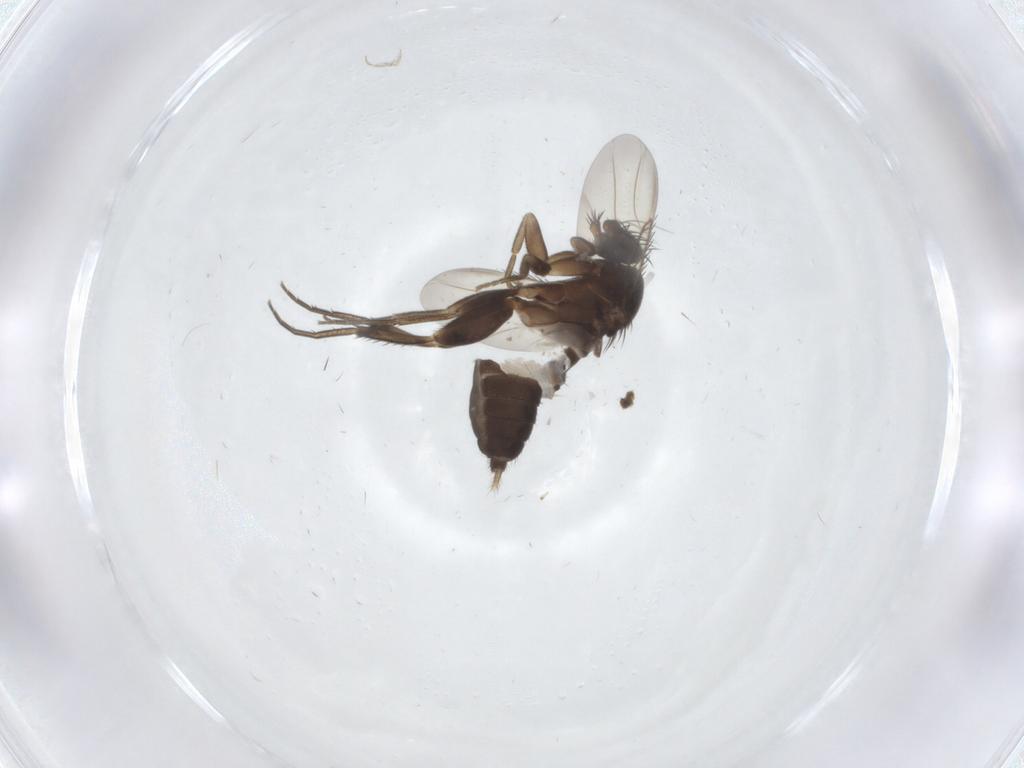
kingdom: Animalia
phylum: Arthropoda
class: Insecta
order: Diptera
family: Phoridae
